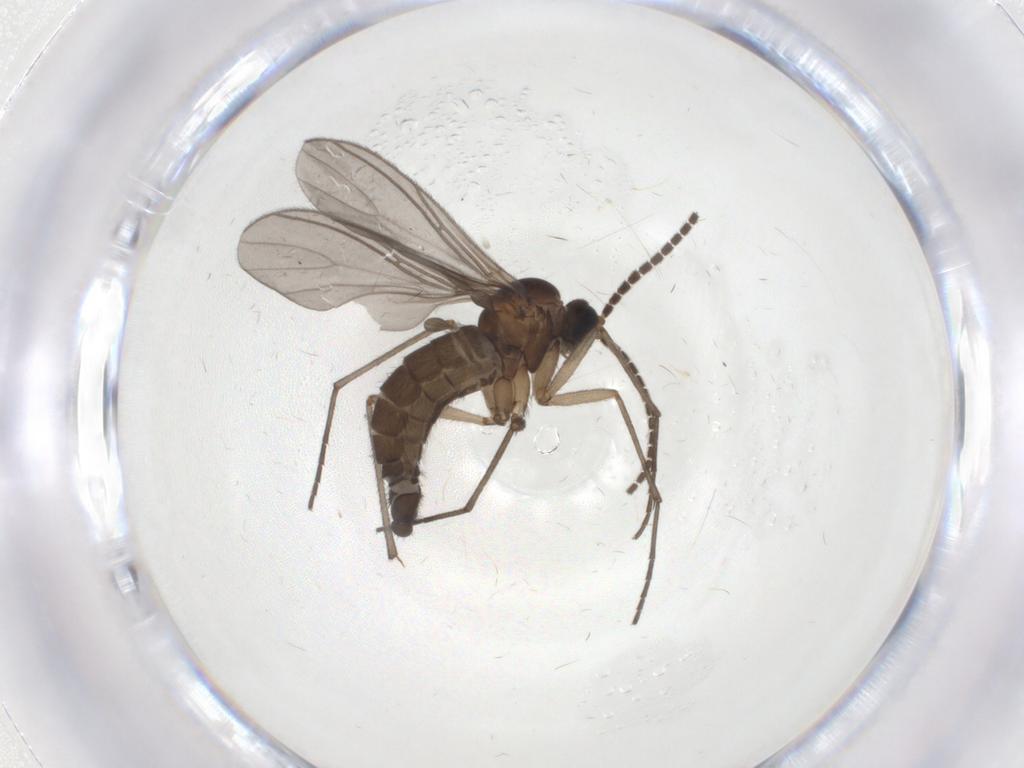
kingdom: Animalia
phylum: Arthropoda
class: Insecta
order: Diptera
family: Sciaridae
